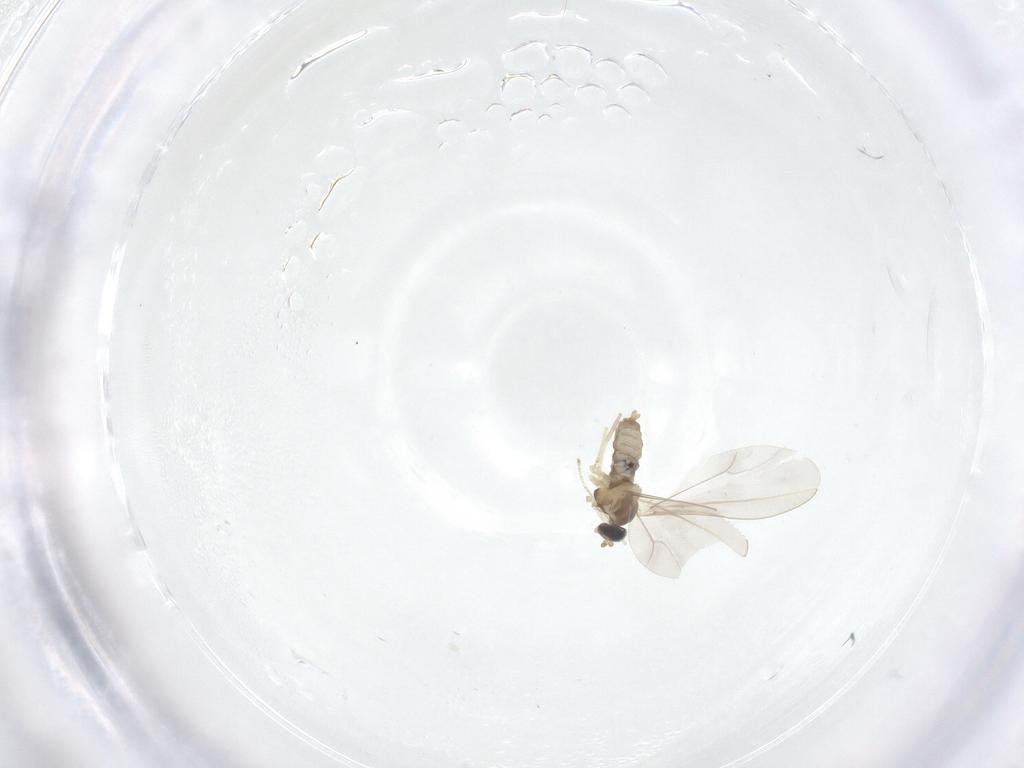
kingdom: Animalia
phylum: Arthropoda
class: Insecta
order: Diptera
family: Cecidomyiidae
